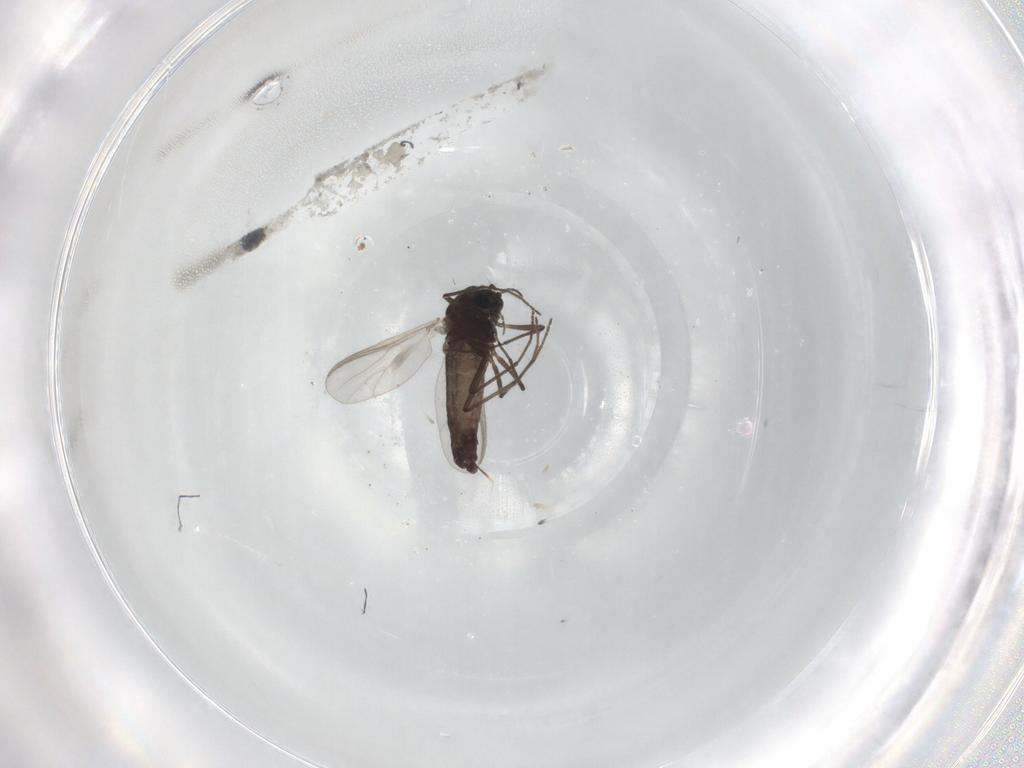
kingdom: Animalia
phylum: Arthropoda
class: Insecta
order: Diptera
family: Chironomidae
